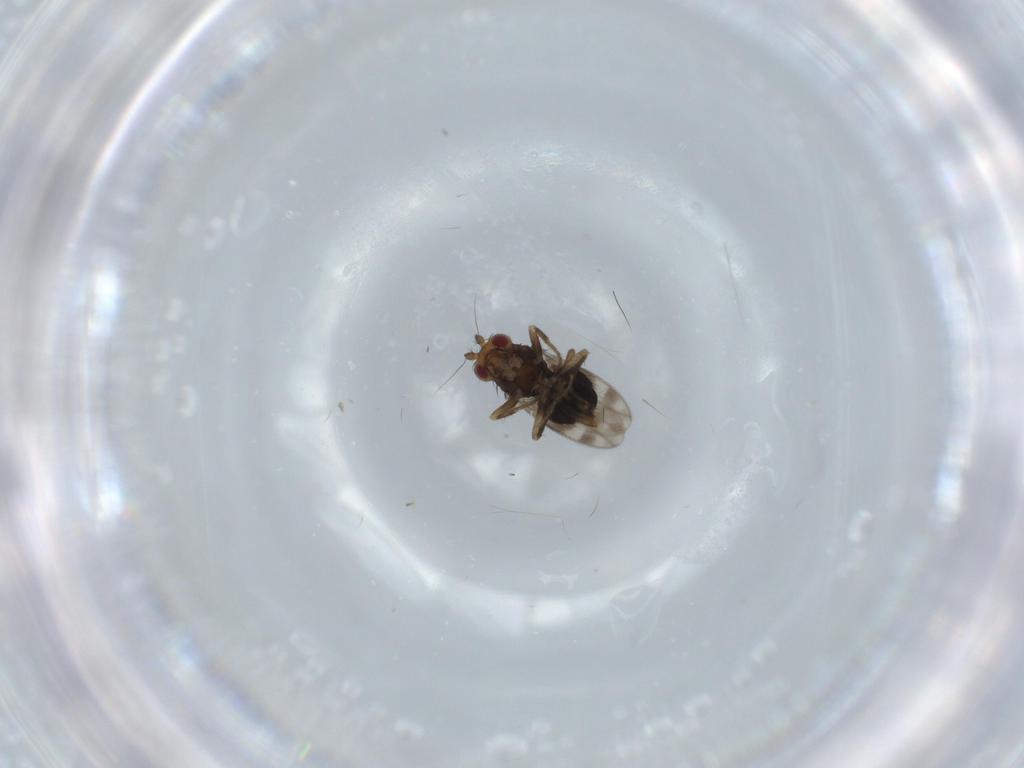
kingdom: Animalia
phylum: Arthropoda
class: Insecta
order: Diptera
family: Sphaeroceridae
